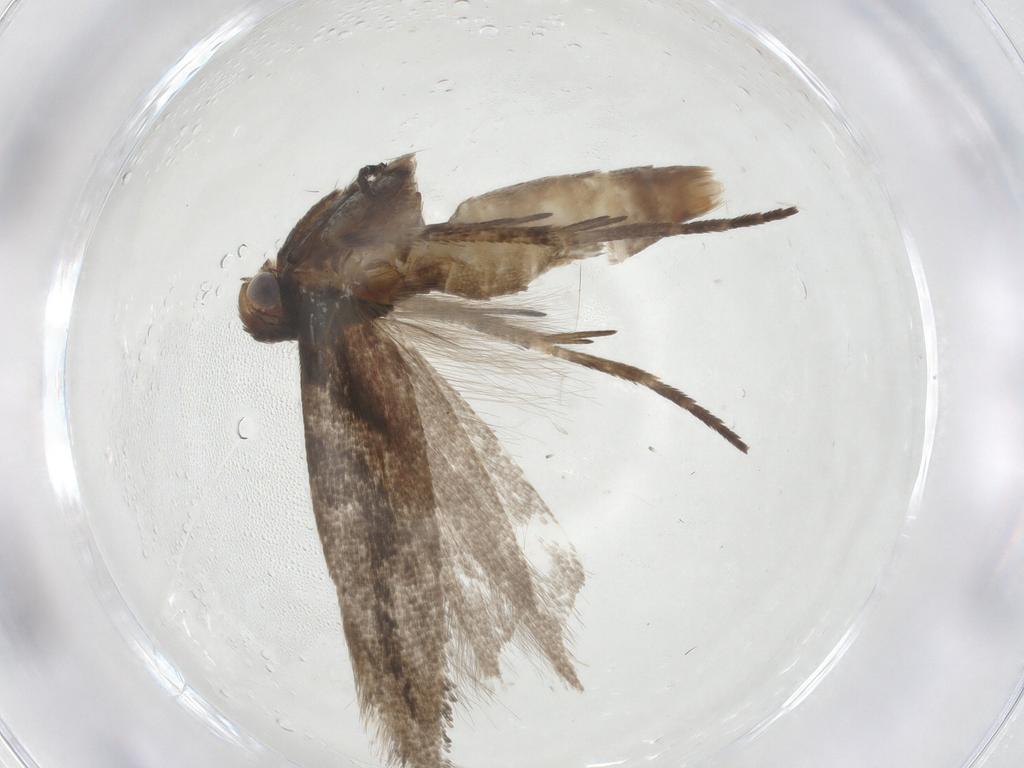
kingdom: Animalia
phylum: Arthropoda
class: Insecta
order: Lepidoptera
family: Gelechiidae
